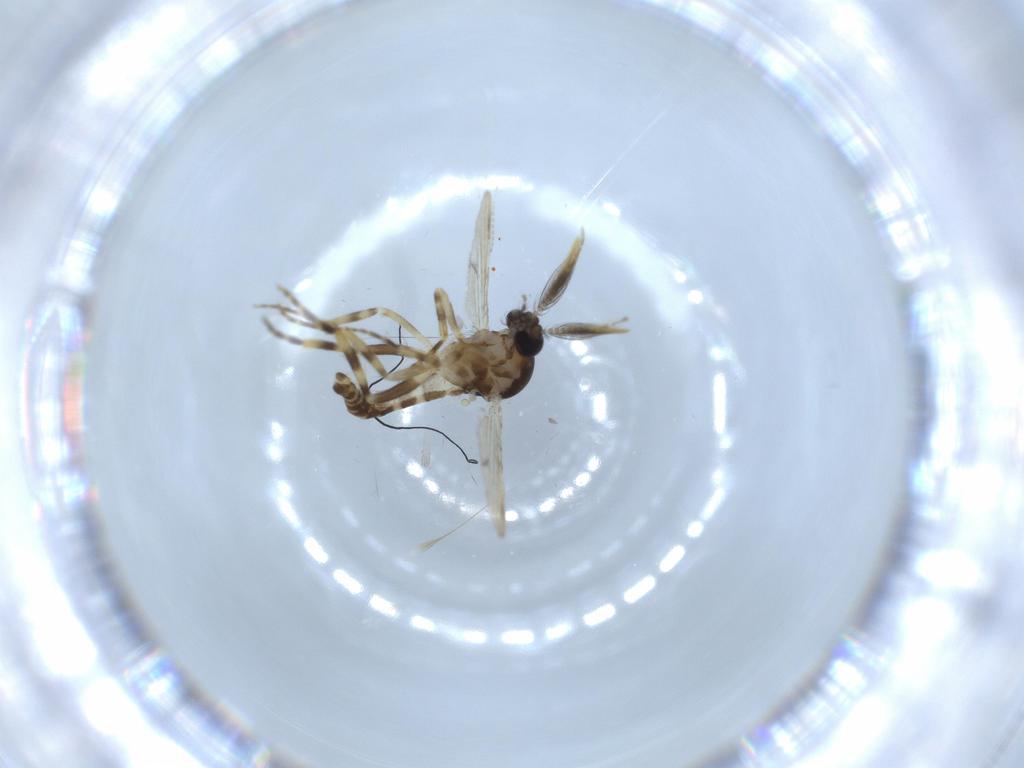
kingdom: Animalia
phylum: Arthropoda
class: Insecta
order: Diptera
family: Ceratopogonidae
